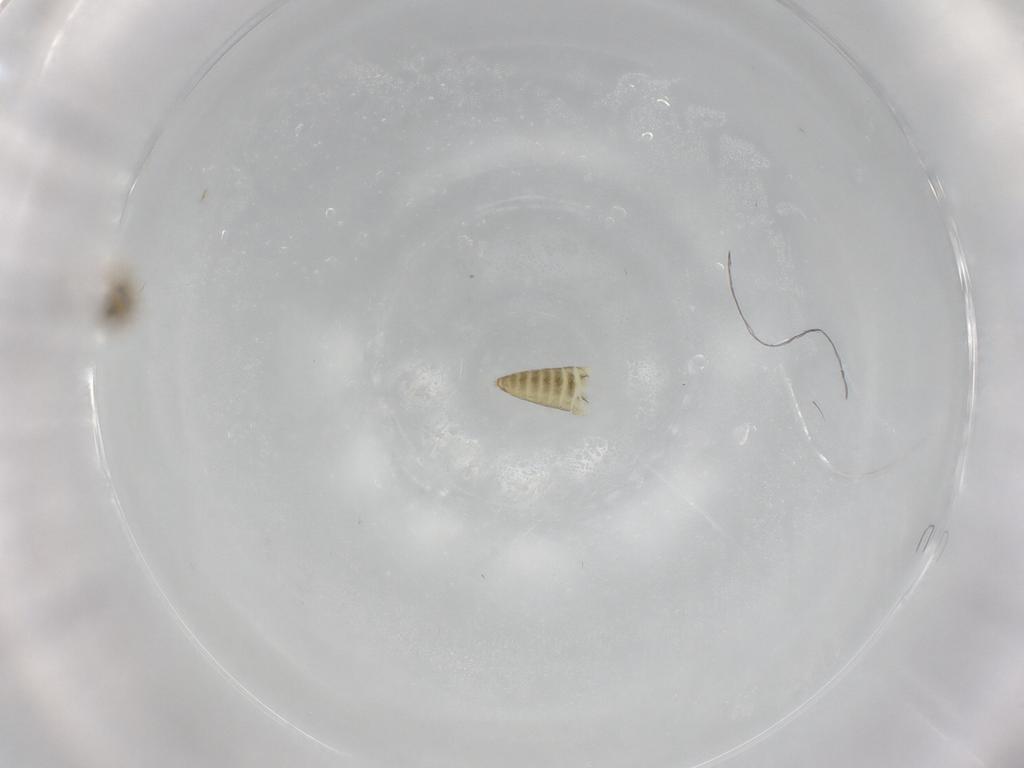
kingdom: Animalia
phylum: Arthropoda
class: Insecta
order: Diptera
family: Chironomidae
